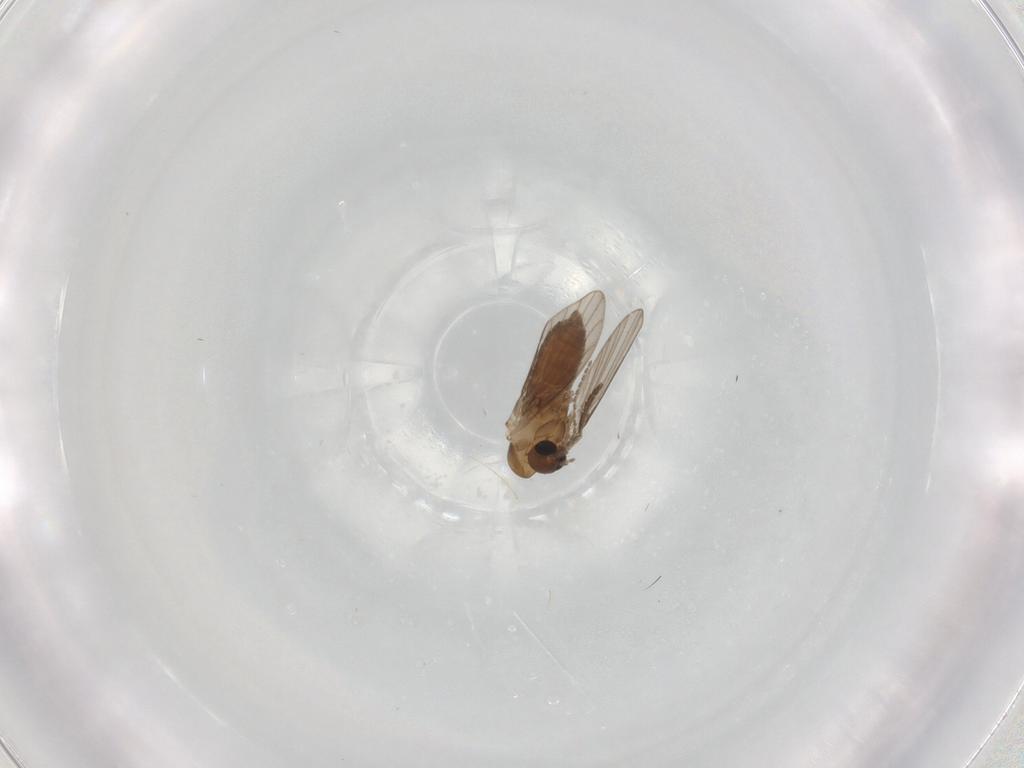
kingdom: Animalia
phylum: Arthropoda
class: Insecta
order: Diptera
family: Psychodidae
